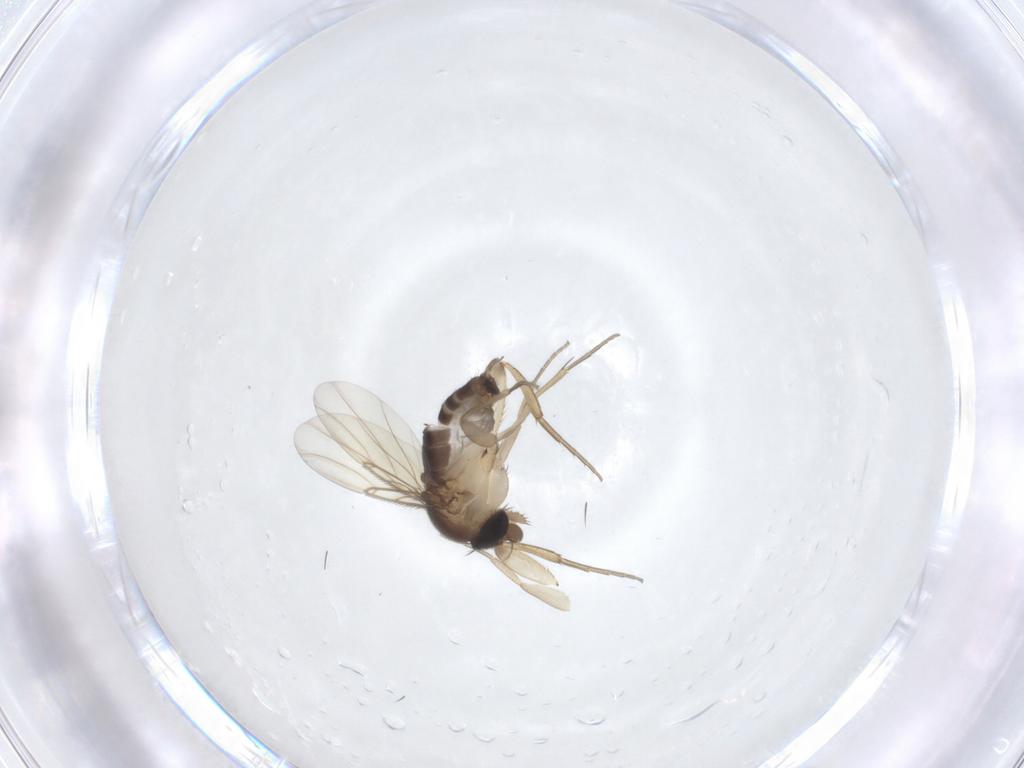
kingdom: Animalia
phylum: Arthropoda
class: Insecta
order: Diptera
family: Phoridae
